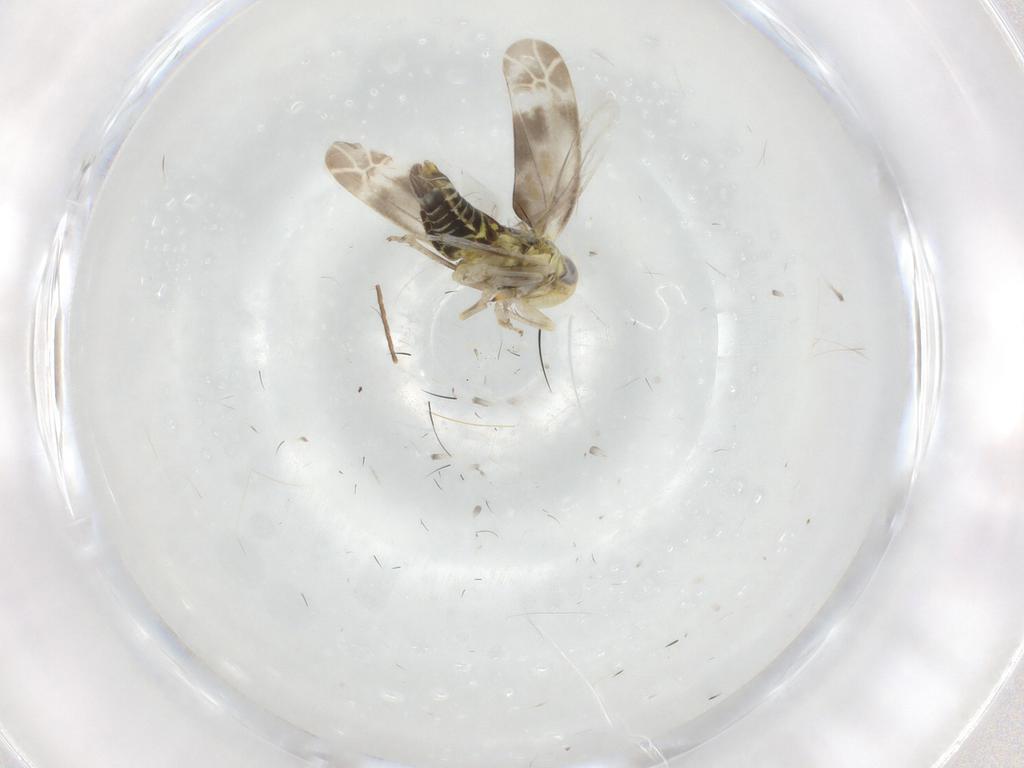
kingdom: Animalia
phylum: Arthropoda
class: Insecta
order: Hemiptera
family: Cicadellidae
